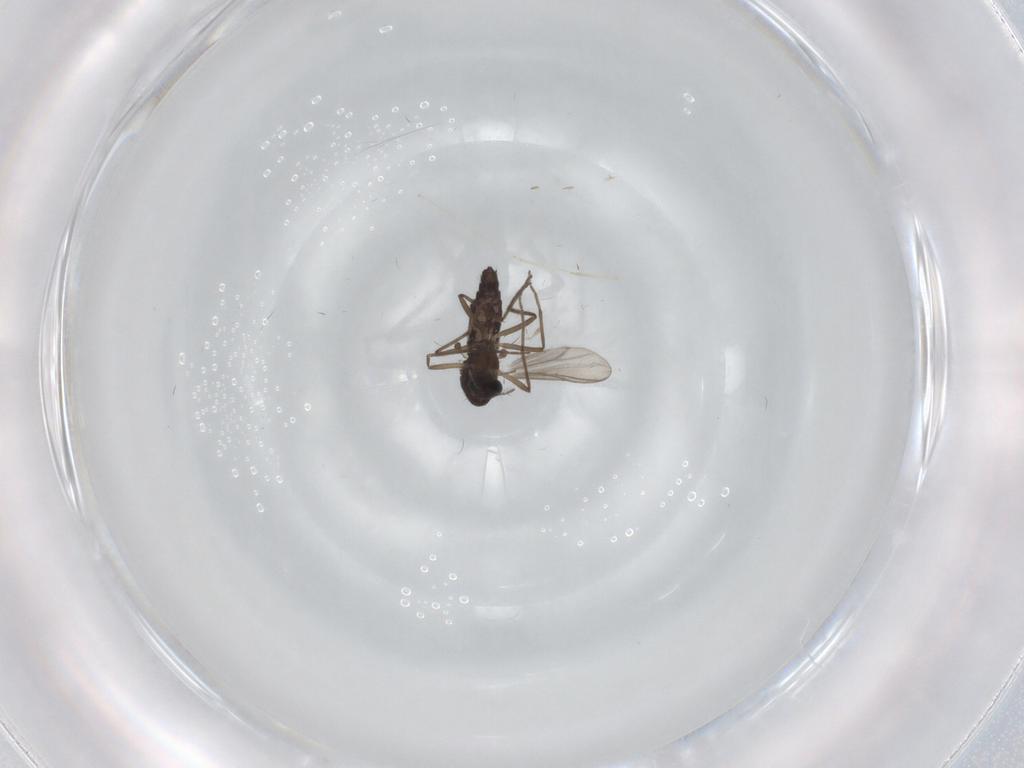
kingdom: Animalia
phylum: Arthropoda
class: Insecta
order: Diptera
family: Chironomidae
